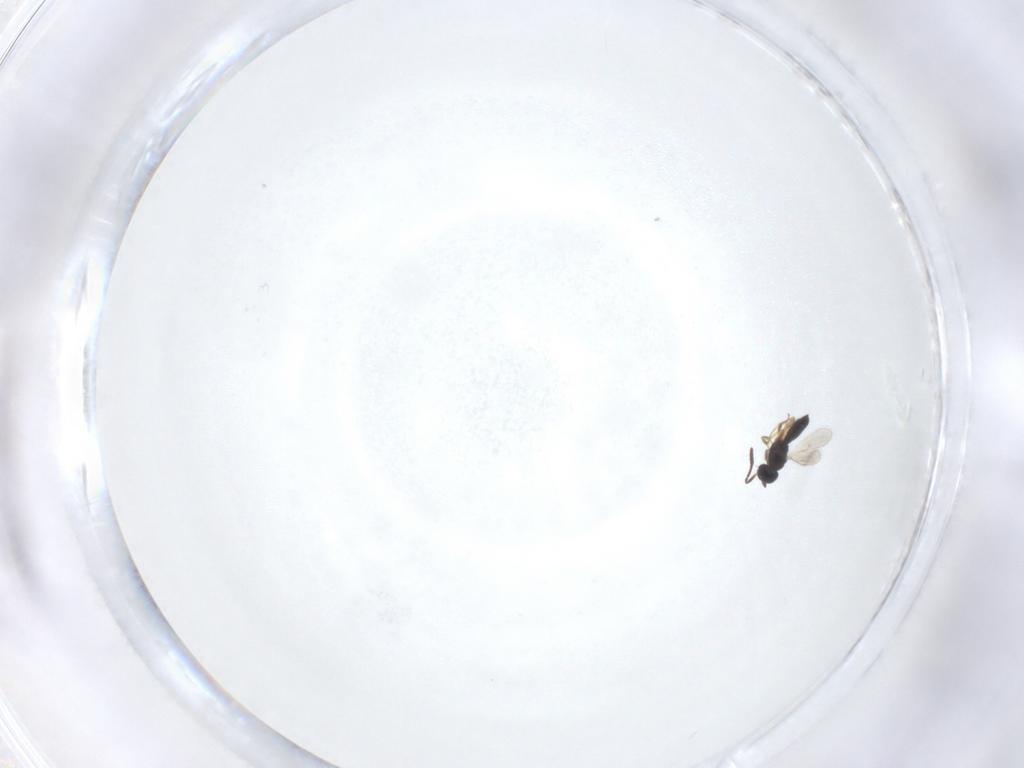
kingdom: Animalia
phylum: Arthropoda
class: Insecta
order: Hymenoptera
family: Scelionidae
